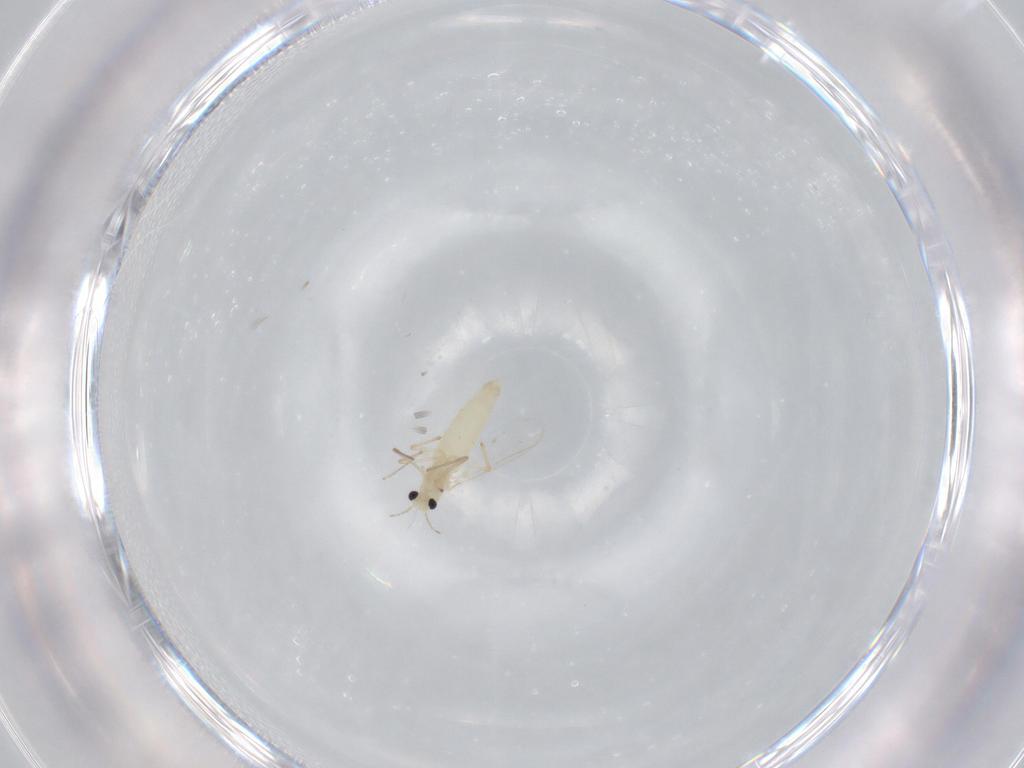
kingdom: Animalia
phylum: Arthropoda
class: Insecta
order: Diptera
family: Chironomidae
